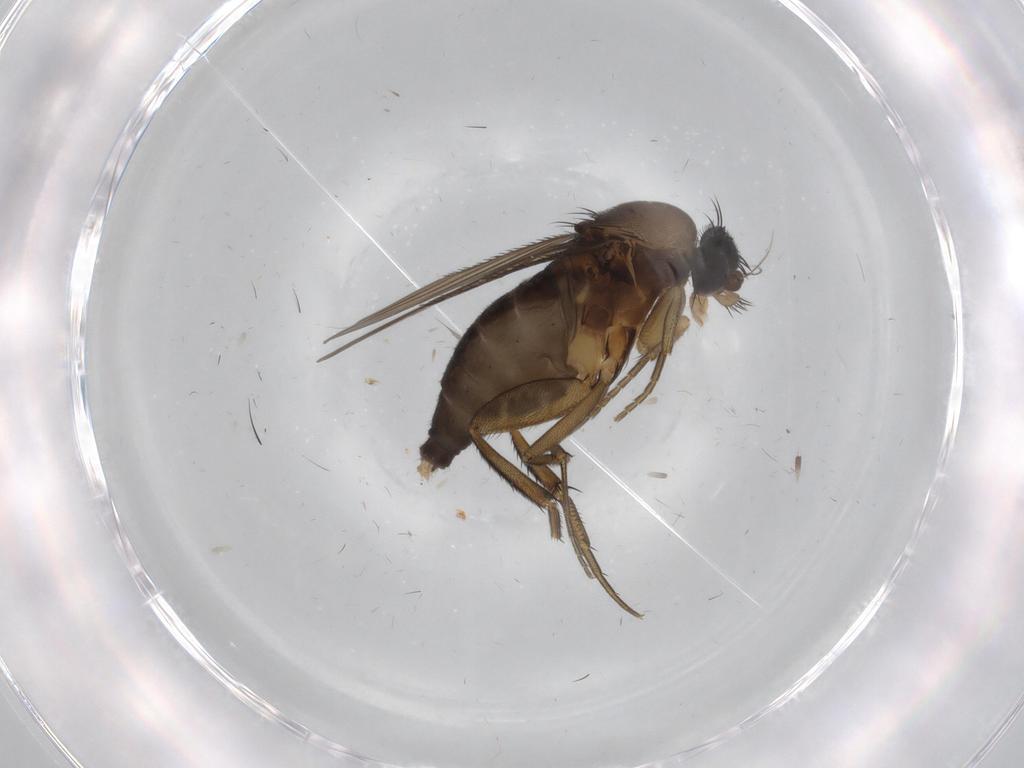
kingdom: Animalia
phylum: Arthropoda
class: Insecta
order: Diptera
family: Phoridae
